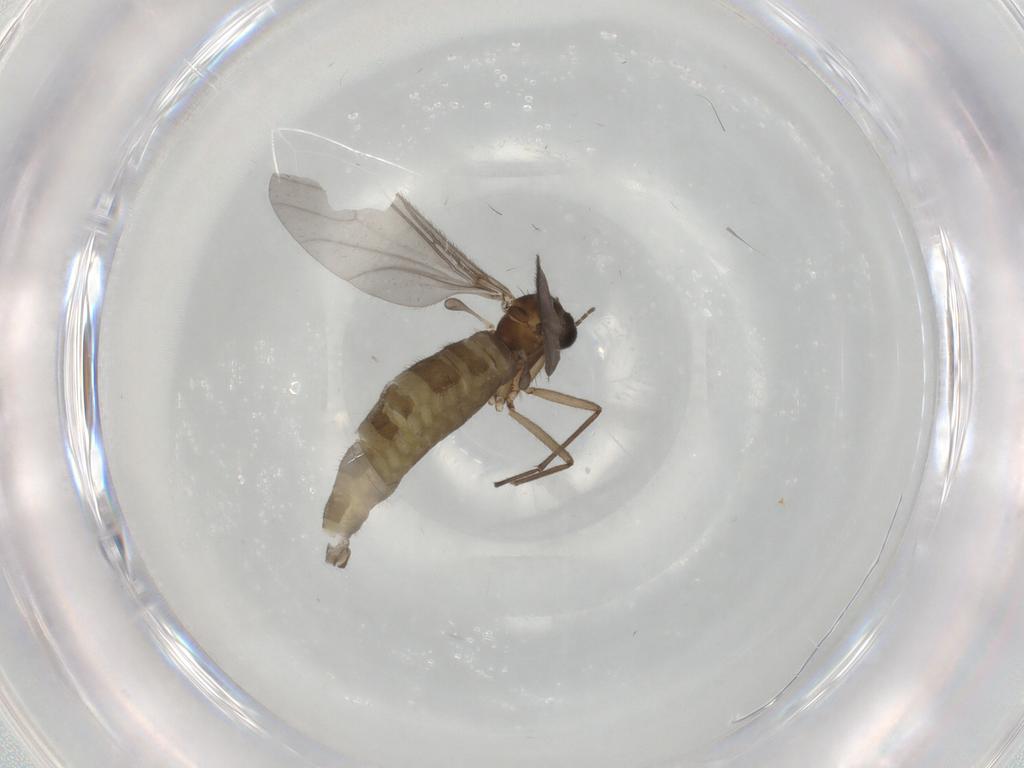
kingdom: Animalia
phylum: Arthropoda
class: Insecta
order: Diptera
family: Sciaridae
